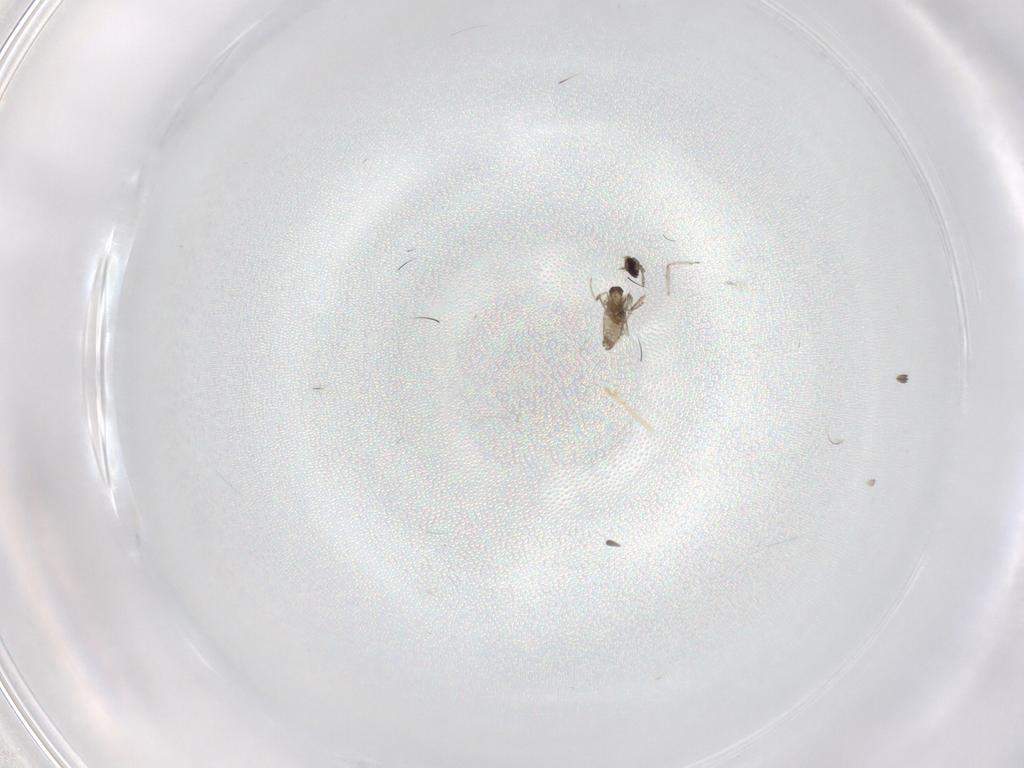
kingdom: Animalia
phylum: Arthropoda
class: Insecta
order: Diptera
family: Cecidomyiidae
